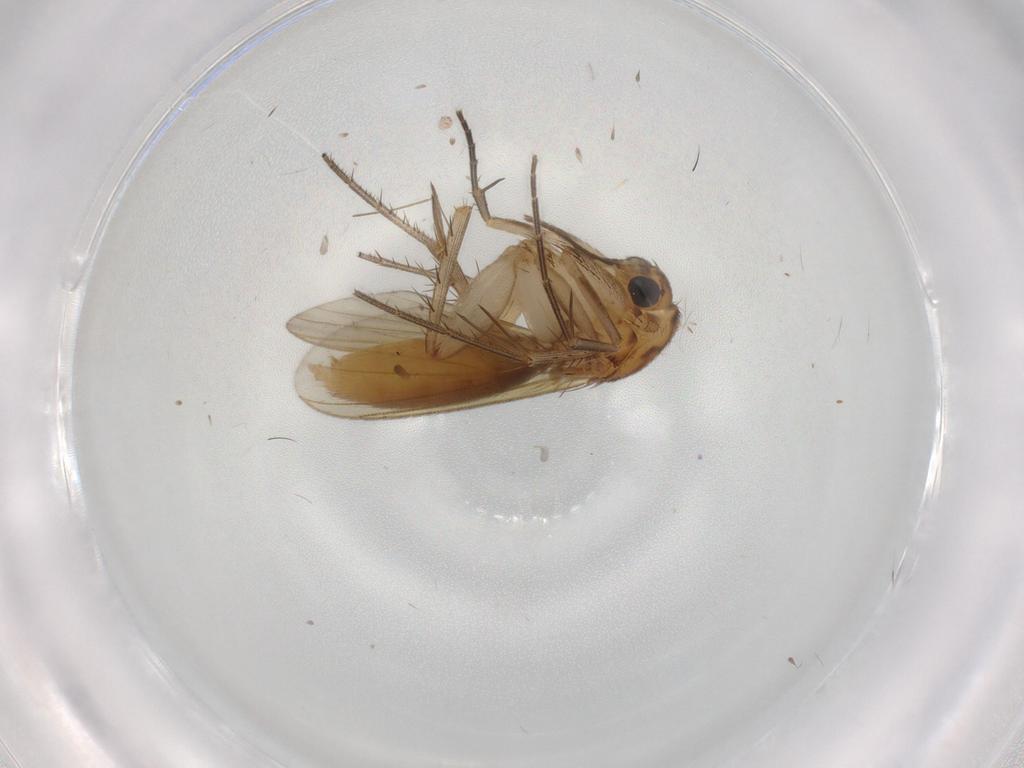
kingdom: Animalia
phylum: Arthropoda
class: Insecta
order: Diptera
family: Mycetophilidae
